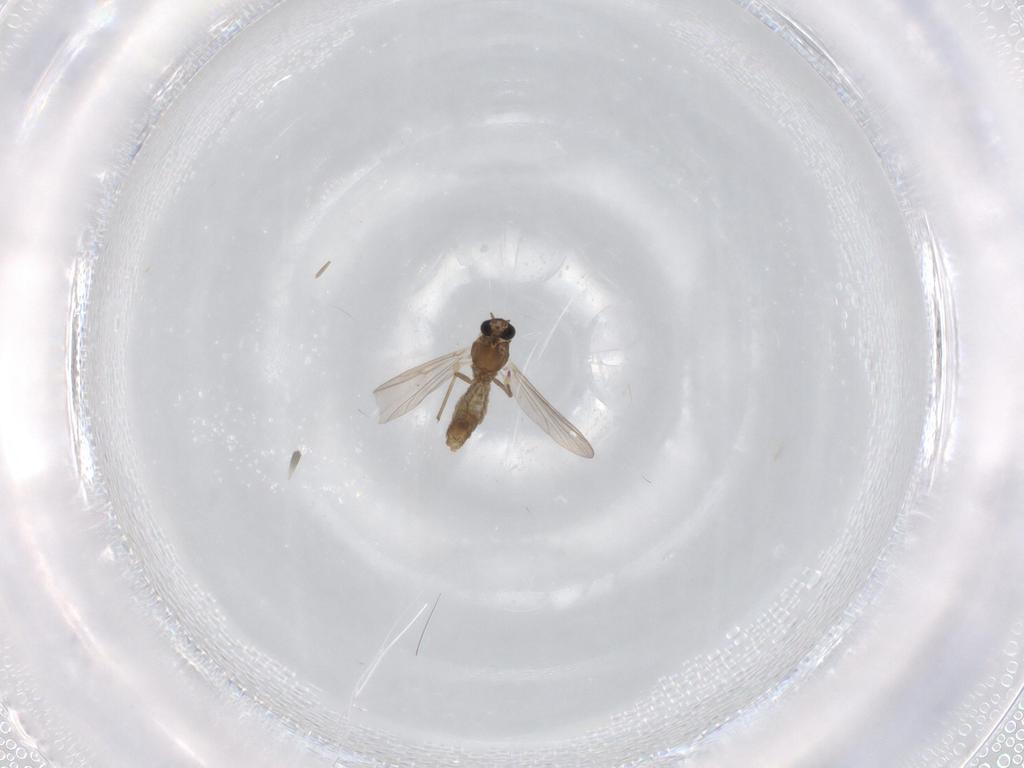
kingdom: Animalia
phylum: Arthropoda
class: Insecta
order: Diptera
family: Chironomidae
